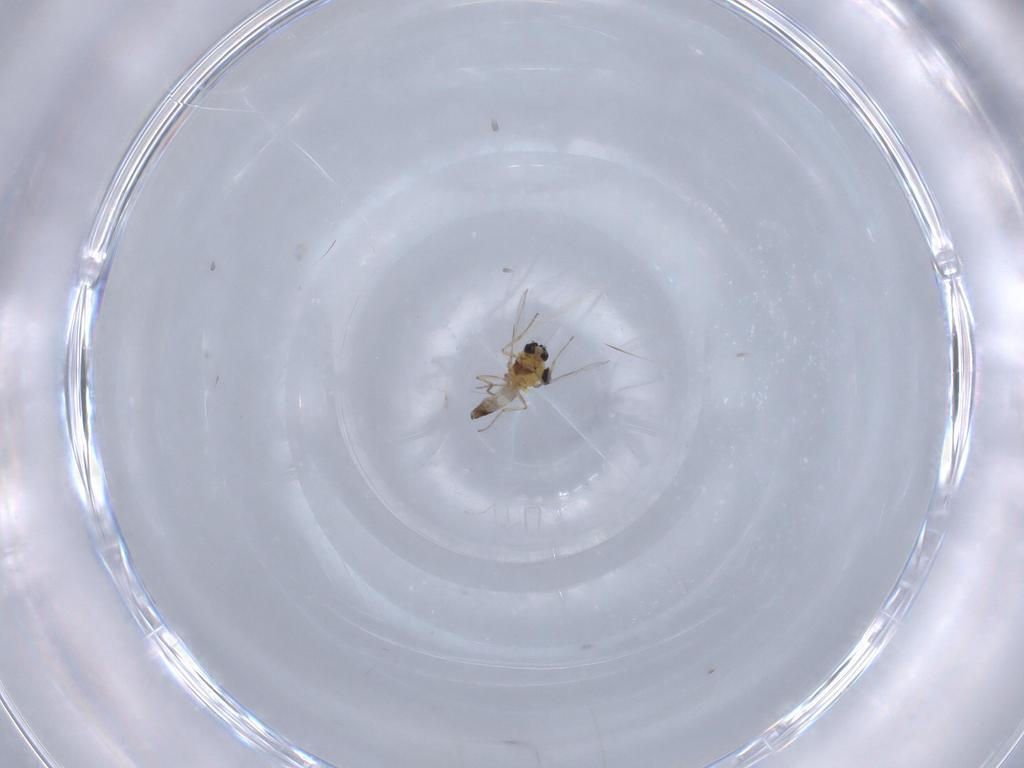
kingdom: Animalia
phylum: Arthropoda
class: Insecta
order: Diptera
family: Ceratopogonidae
